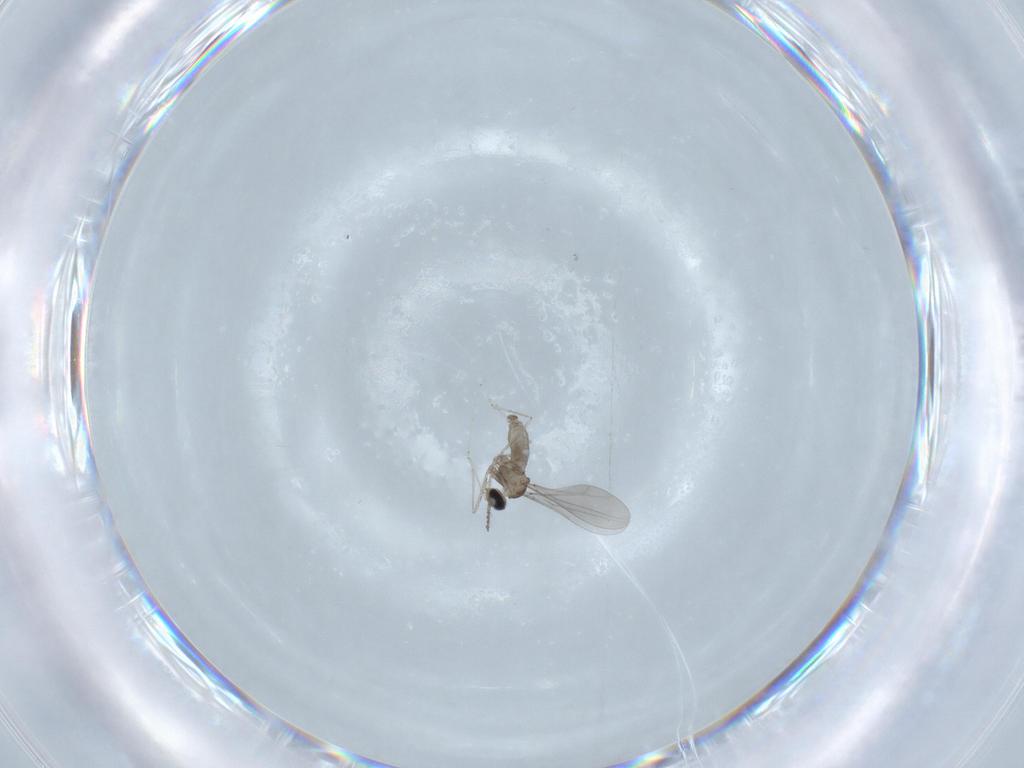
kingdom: Animalia
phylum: Arthropoda
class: Insecta
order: Diptera
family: Cecidomyiidae
